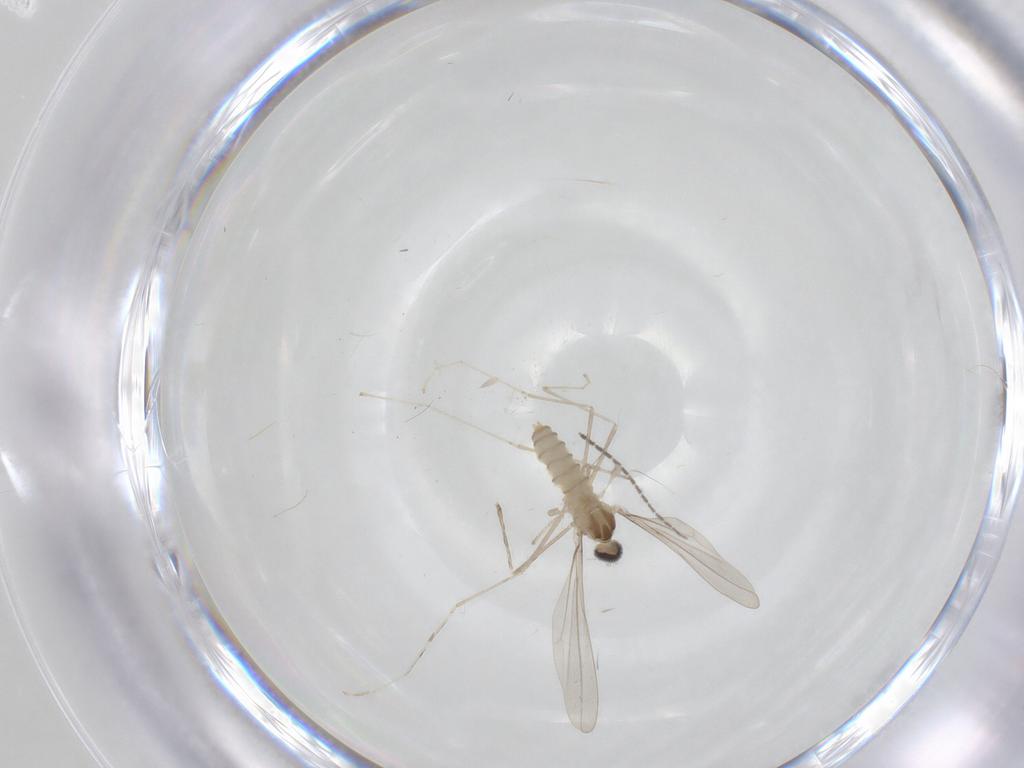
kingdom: Animalia
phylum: Arthropoda
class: Insecta
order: Diptera
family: Cecidomyiidae
